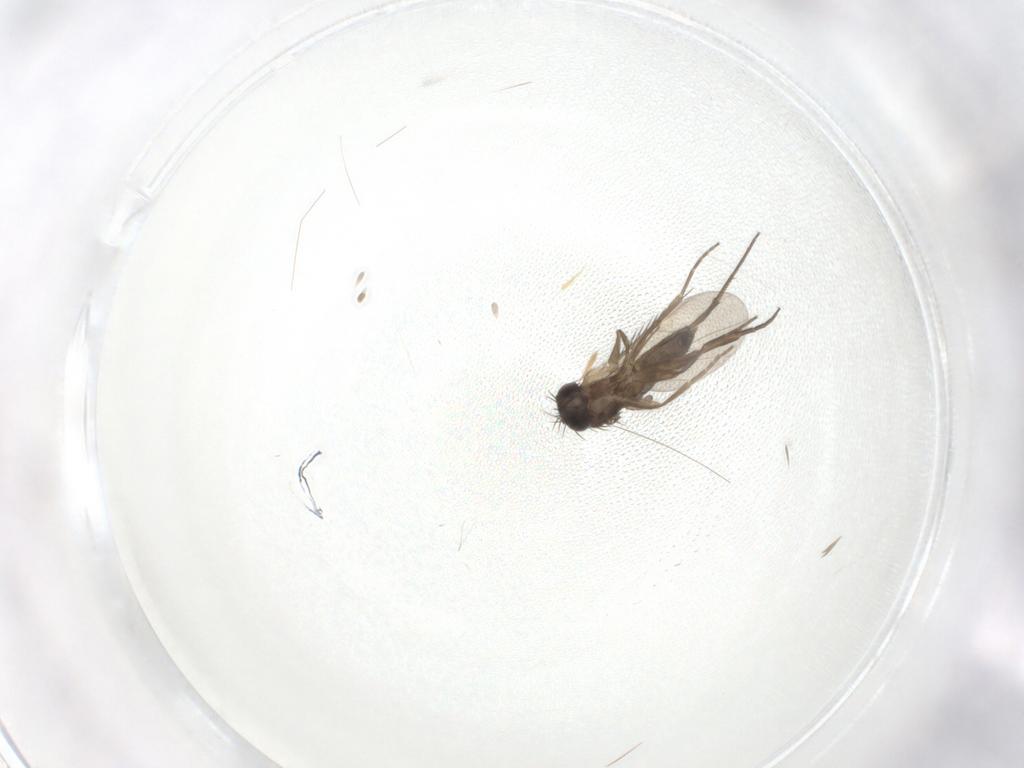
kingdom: Animalia
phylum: Arthropoda
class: Insecta
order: Diptera
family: Phoridae
